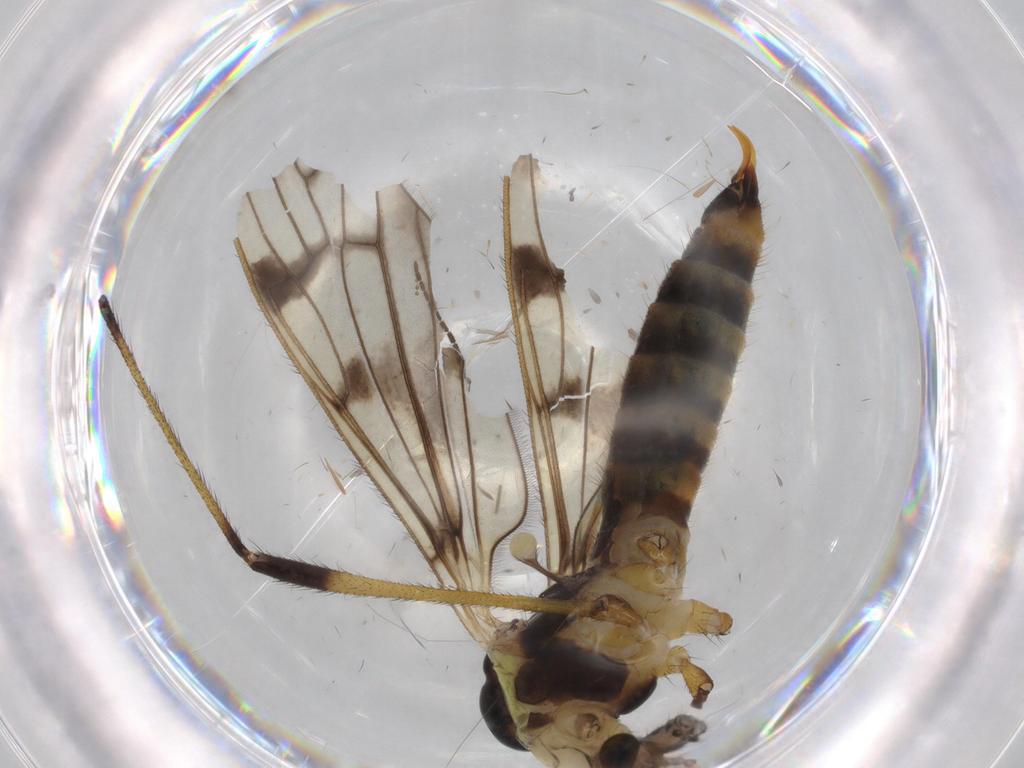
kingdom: Animalia
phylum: Arthropoda
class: Insecta
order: Diptera
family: Limoniidae
